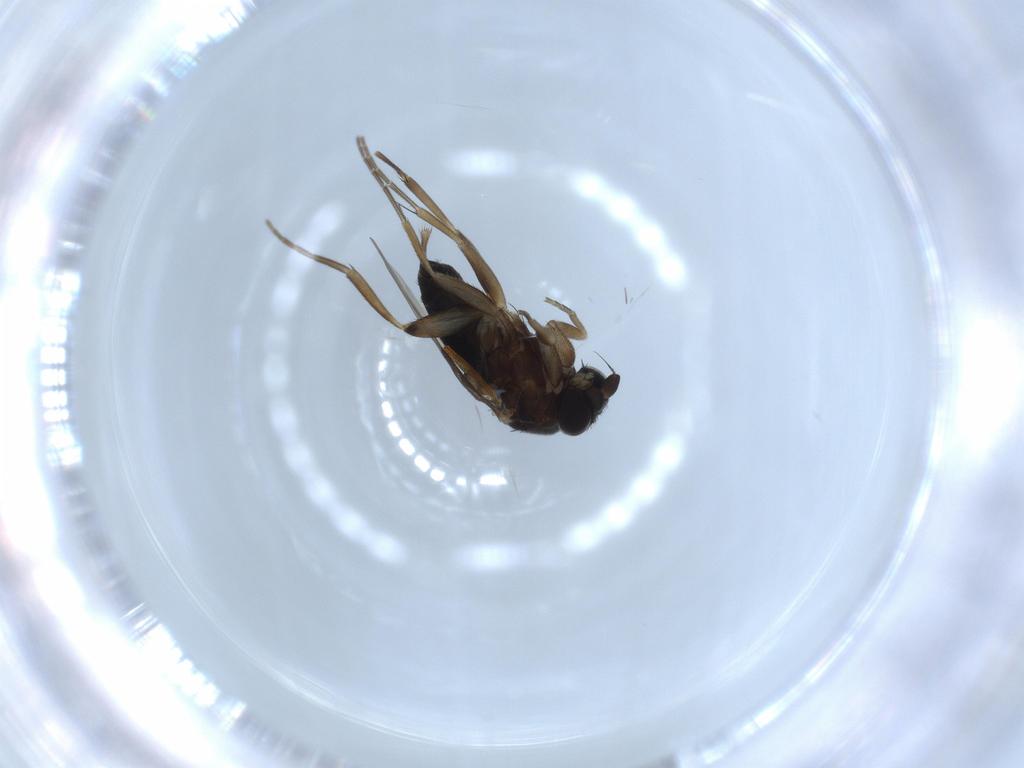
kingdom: Animalia
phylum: Arthropoda
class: Insecta
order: Diptera
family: Phoridae
